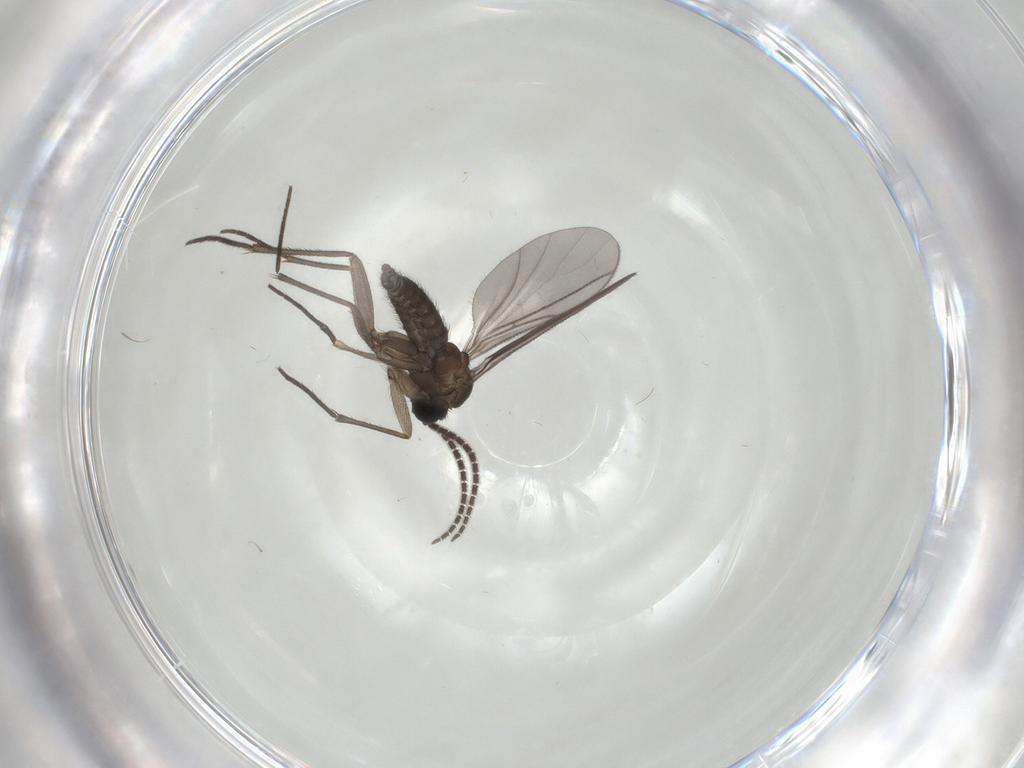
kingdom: Animalia
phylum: Arthropoda
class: Insecta
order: Diptera
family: Sciaridae
